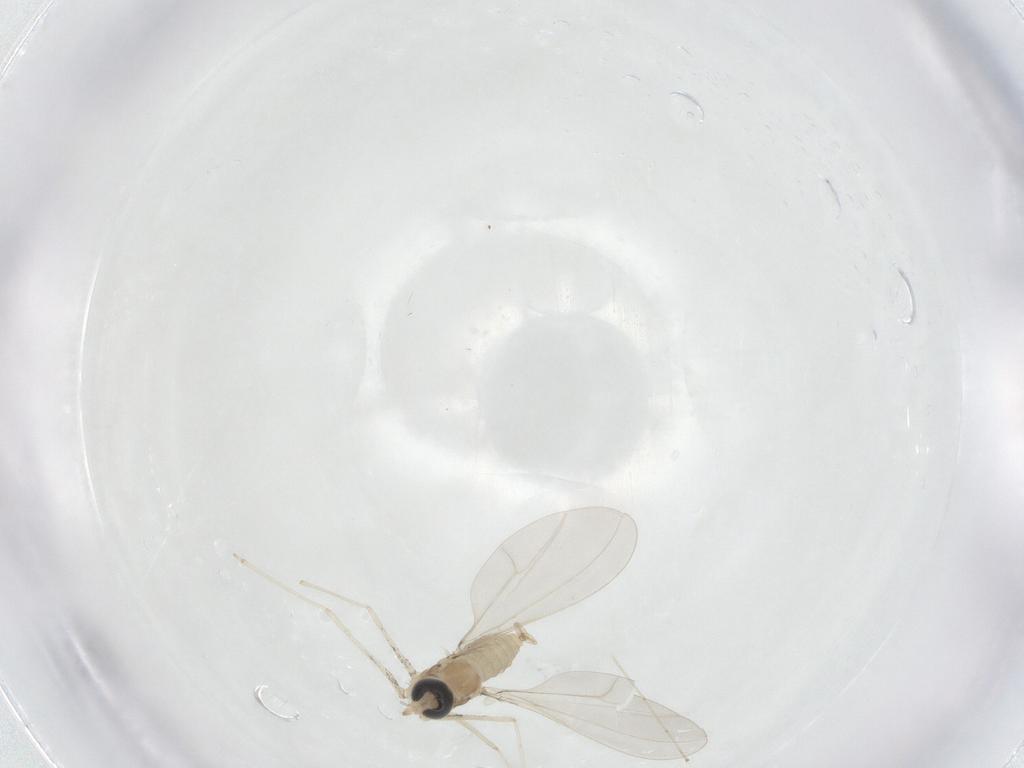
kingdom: Animalia
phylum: Arthropoda
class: Insecta
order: Diptera
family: Cecidomyiidae
